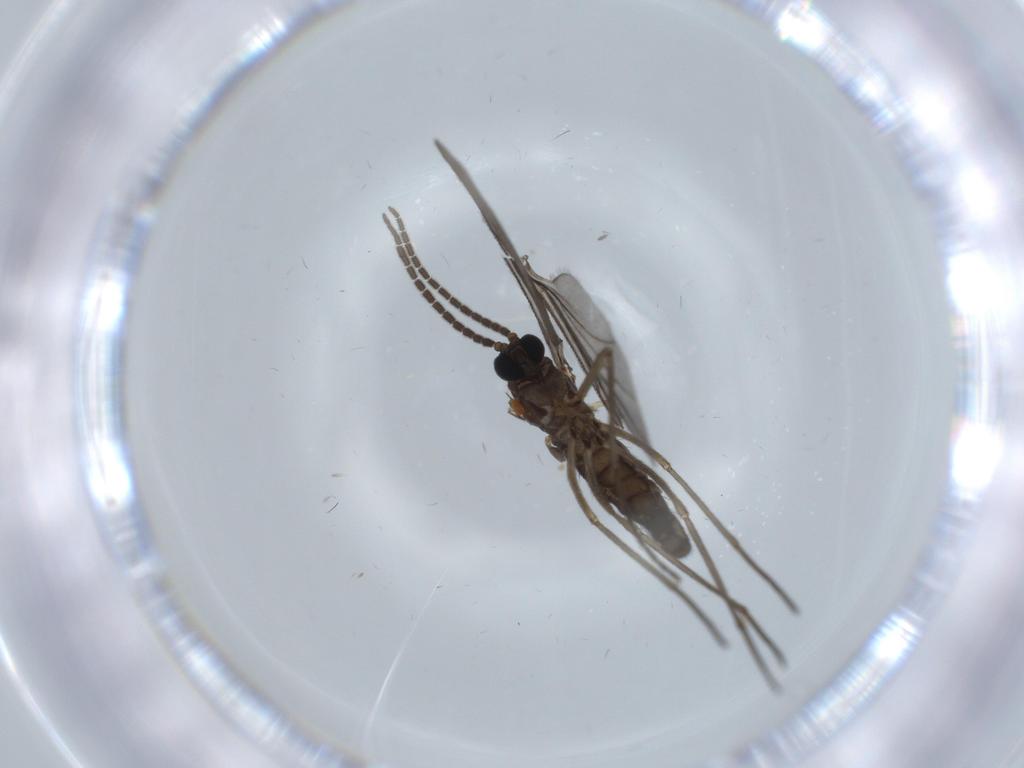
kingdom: Animalia
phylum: Arthropoda
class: Insecta
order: Diptera
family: Sciaridae
